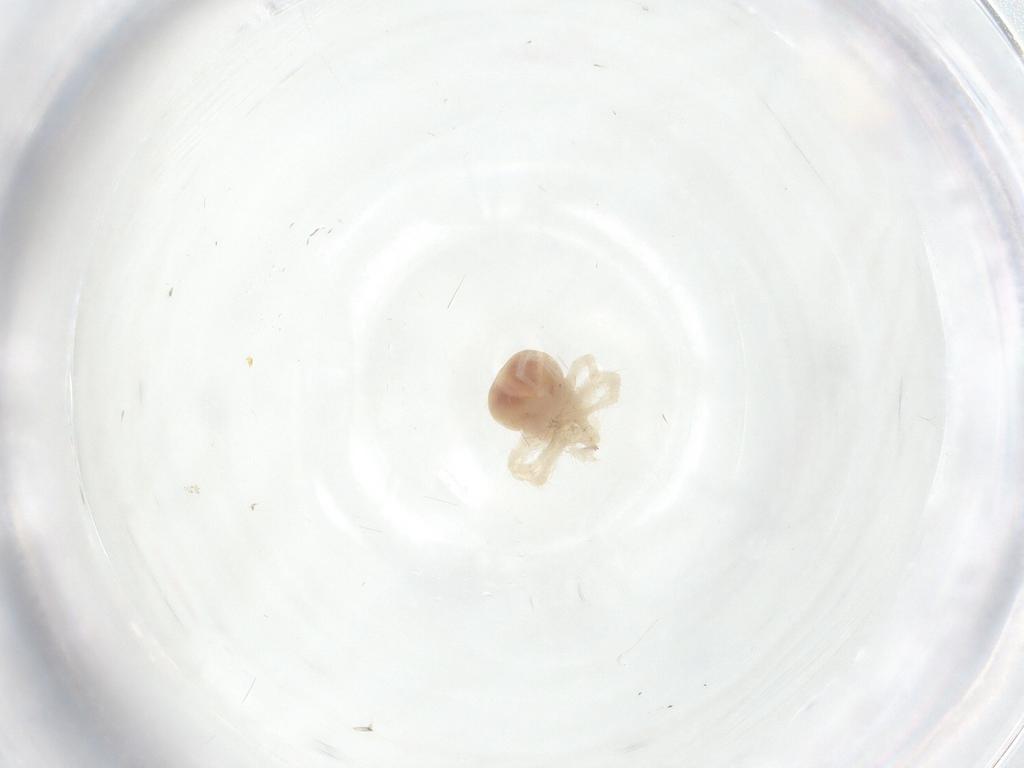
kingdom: Animalia
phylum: Arthropoda
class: Arachnida
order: Trombidiformes
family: Anystidae
